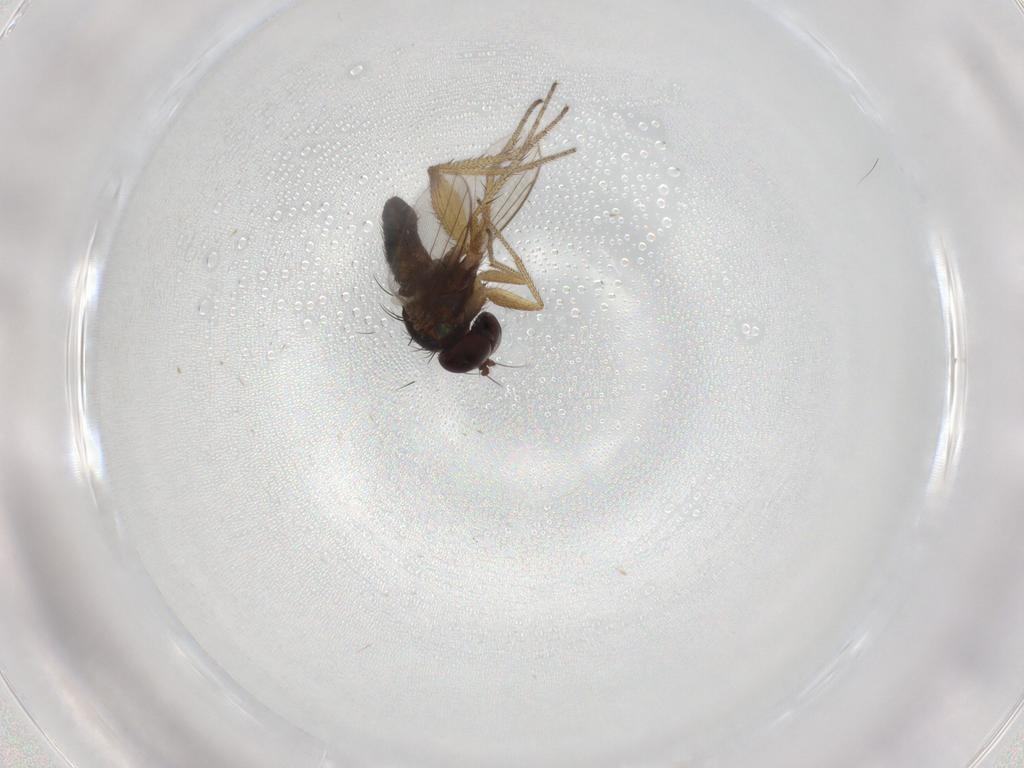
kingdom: Animalia
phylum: Arthropoda
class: Insecta
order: Diptera
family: Dolichopodidae
